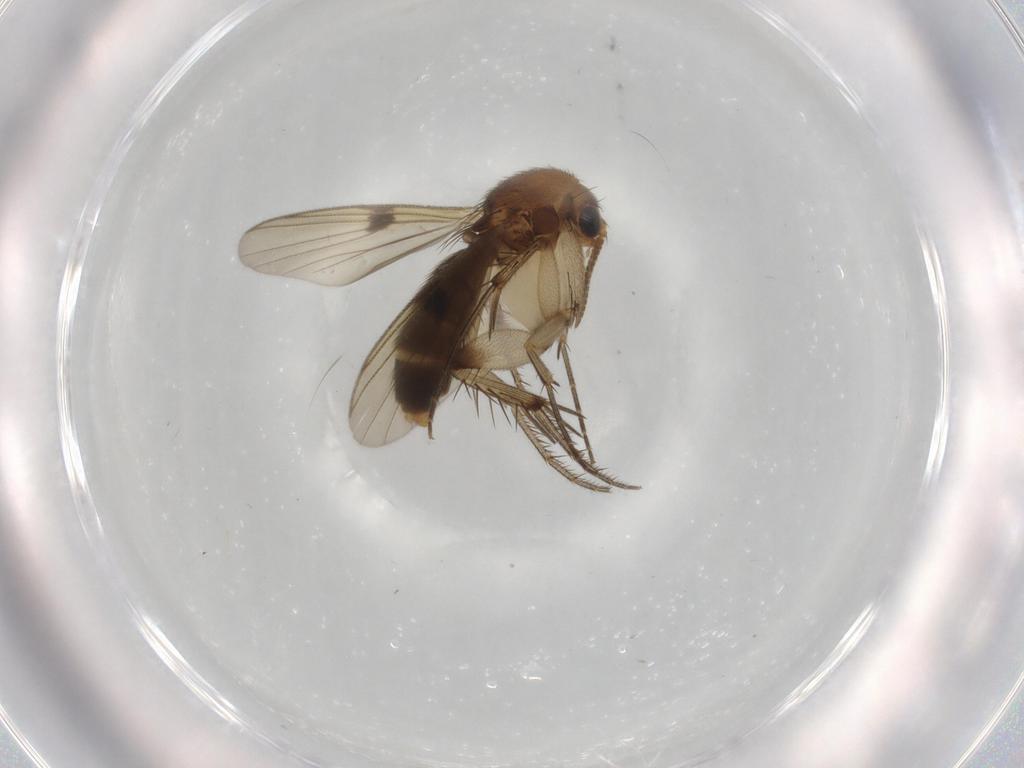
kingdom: Animalia
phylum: Arthropoda
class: Insecta
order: Diptera
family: Mycetophilidae
